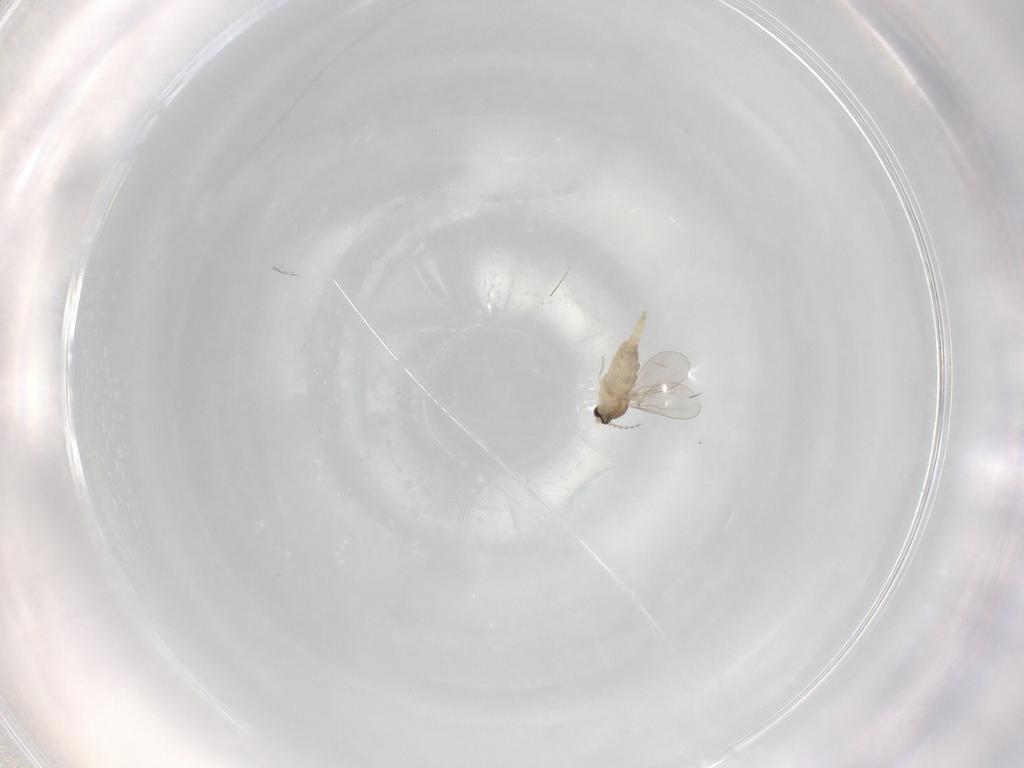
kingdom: Animalia
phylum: Arthropoda
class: Insecta
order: Diptera
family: Cecidomyiidae
